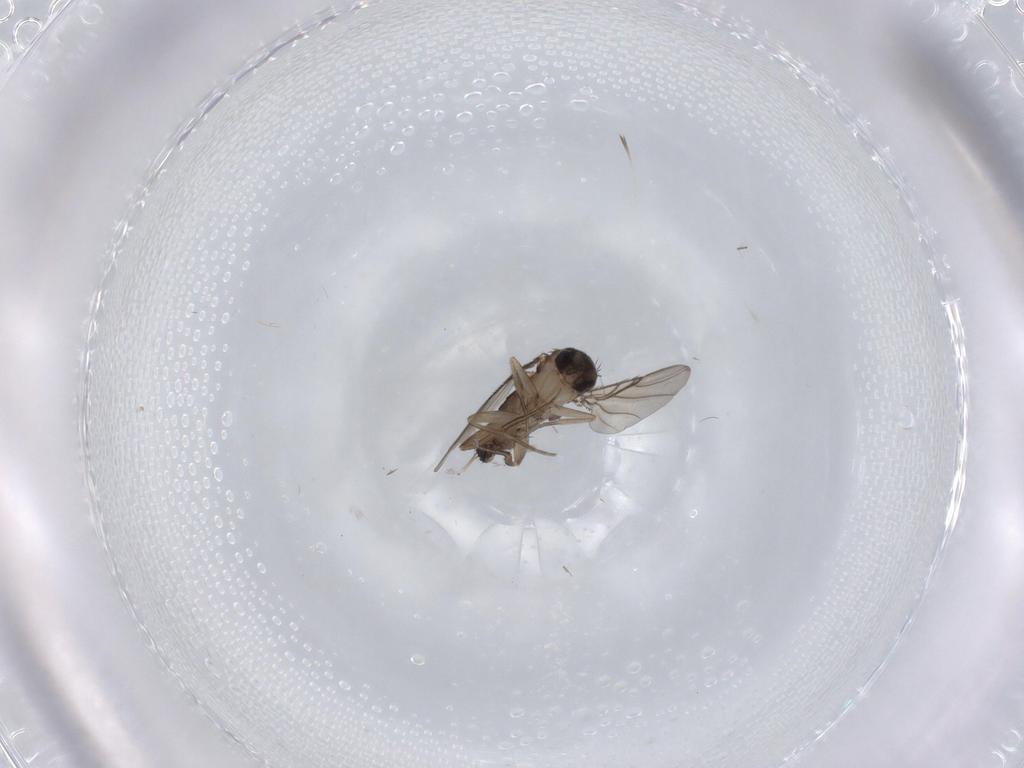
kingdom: Animalia
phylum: Arthropoda
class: Insecta
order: Diptera
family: Phoridae
